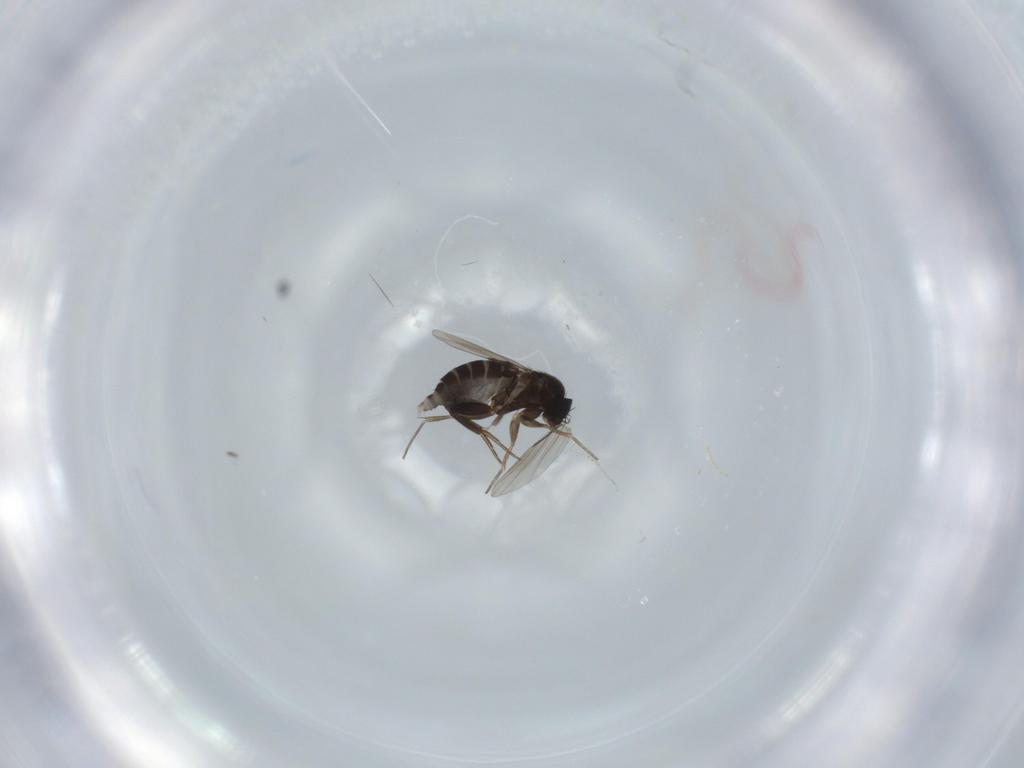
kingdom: Animalia
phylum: Arthropoda
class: Insecta
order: Diptera
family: Phoridae
